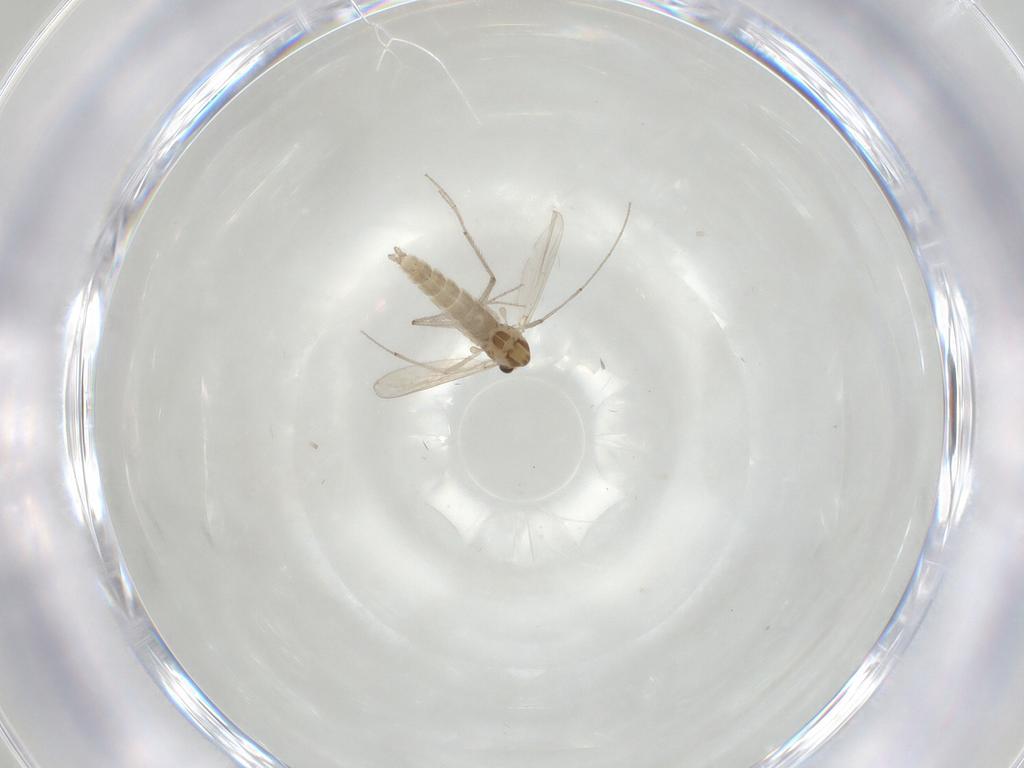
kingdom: Animalia
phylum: Arthropoda
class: Insecta
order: Diptera
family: Chironomidae
